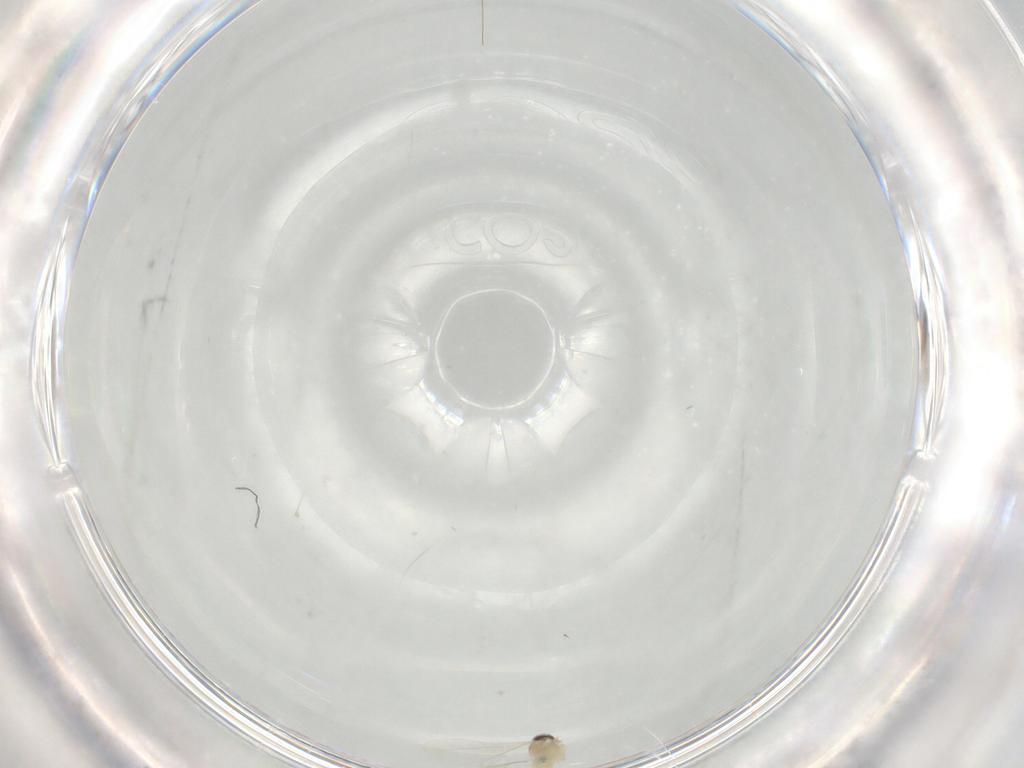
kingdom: Animalia
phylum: Arthropoda
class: Insecta
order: Diptera
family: Cecidomyiidae
